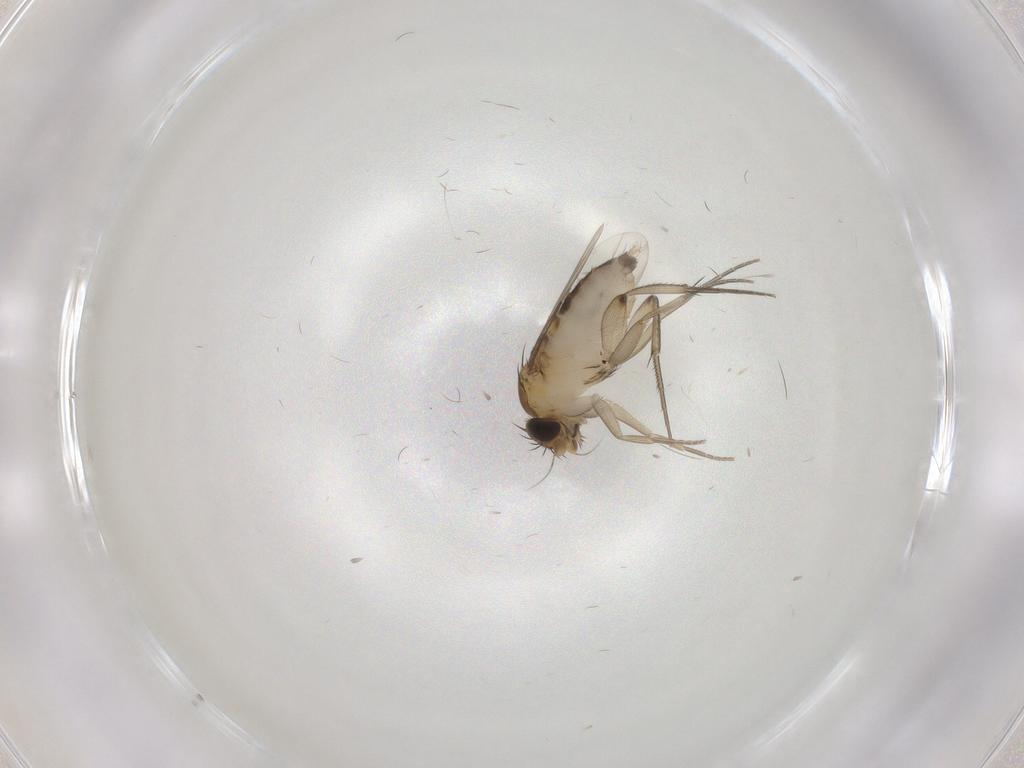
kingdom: Animalia
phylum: Arthropoda
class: Insecta
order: Diptera
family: Phoridae
